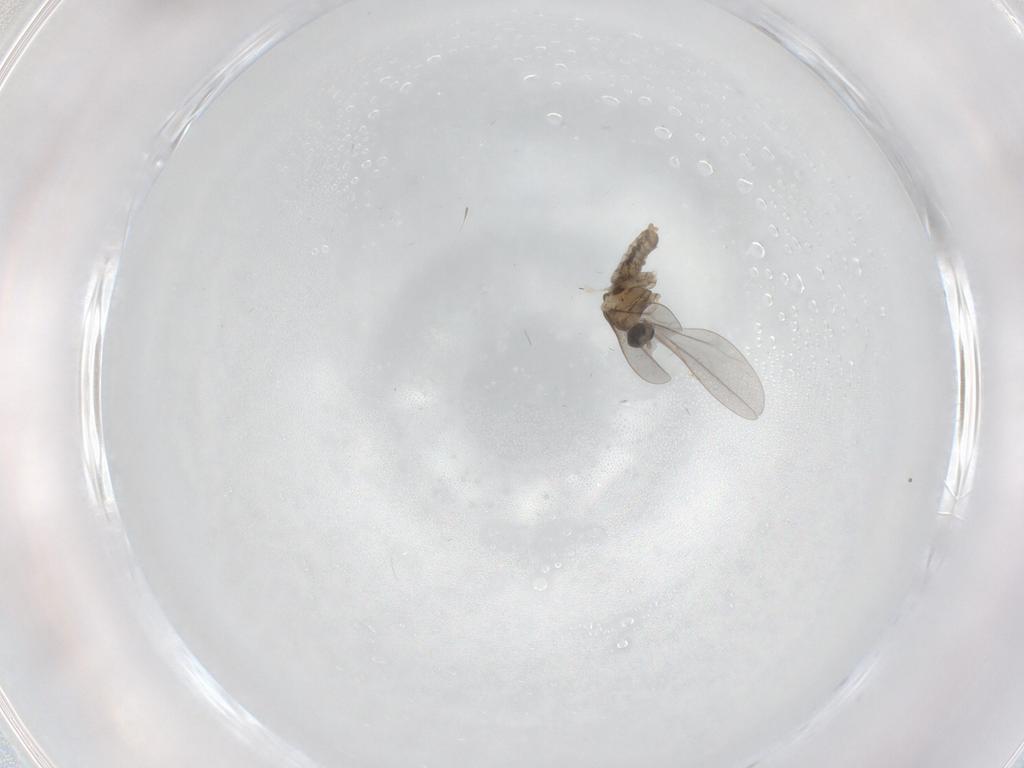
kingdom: Animalia
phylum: Arthropoda
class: Insecta
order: Diptera
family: Cecidomyiidae
